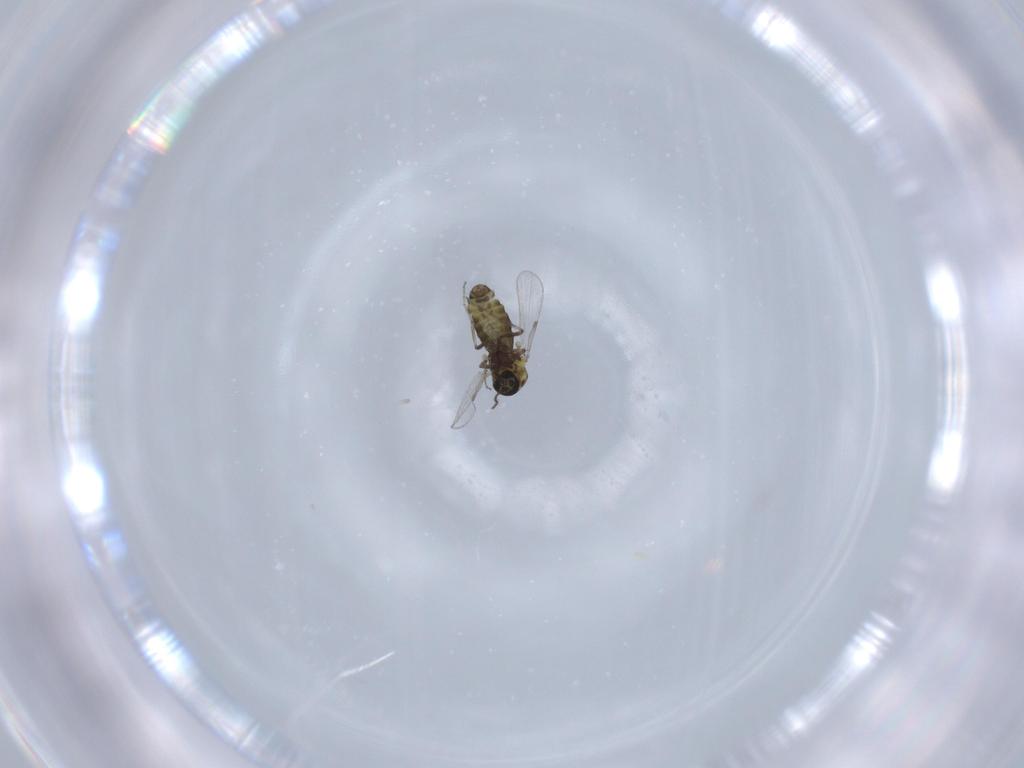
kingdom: Animalia
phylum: Arthropoda
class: Insecta
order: Diptera
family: Ceratopogonidae
